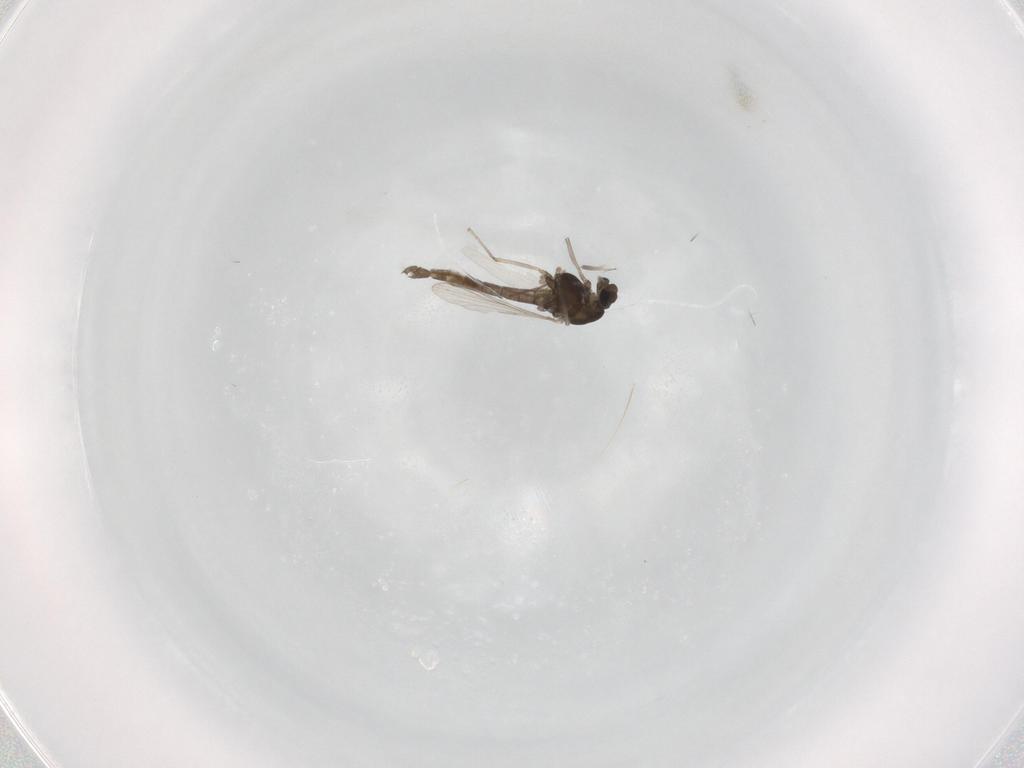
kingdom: Animalia
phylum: Arthropoda
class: Insecta
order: Diptera
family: Chironomidae
